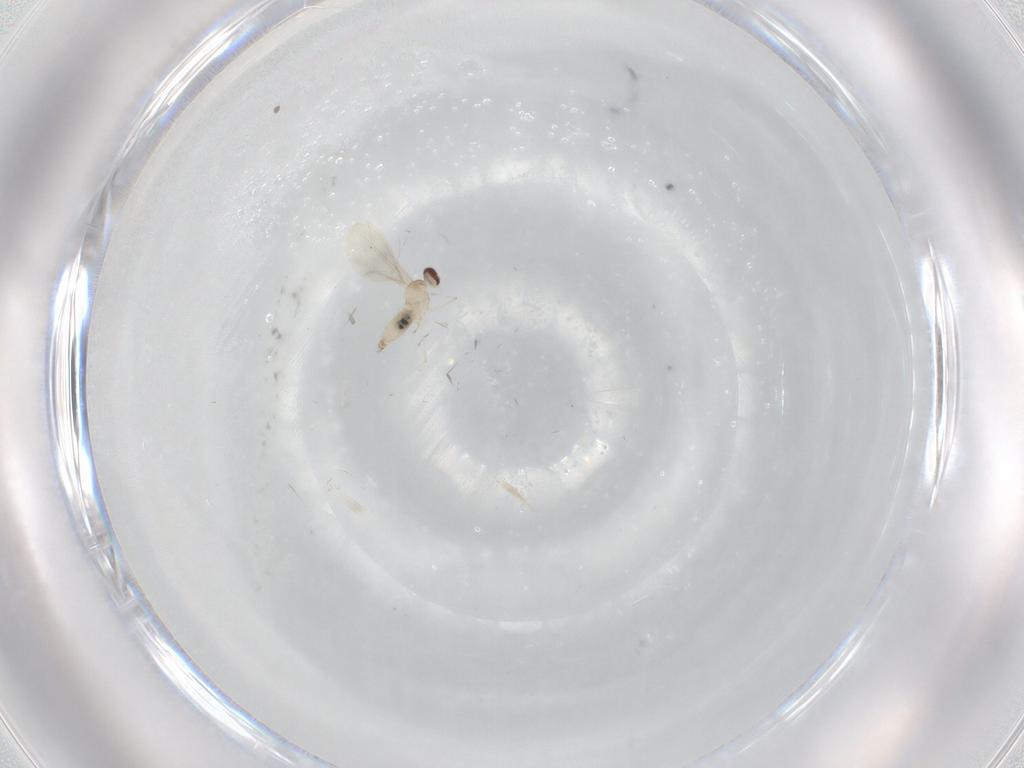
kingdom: Animalia
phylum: Arthropoda
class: Insecta
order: Diptera
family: Cecidomyiidae
